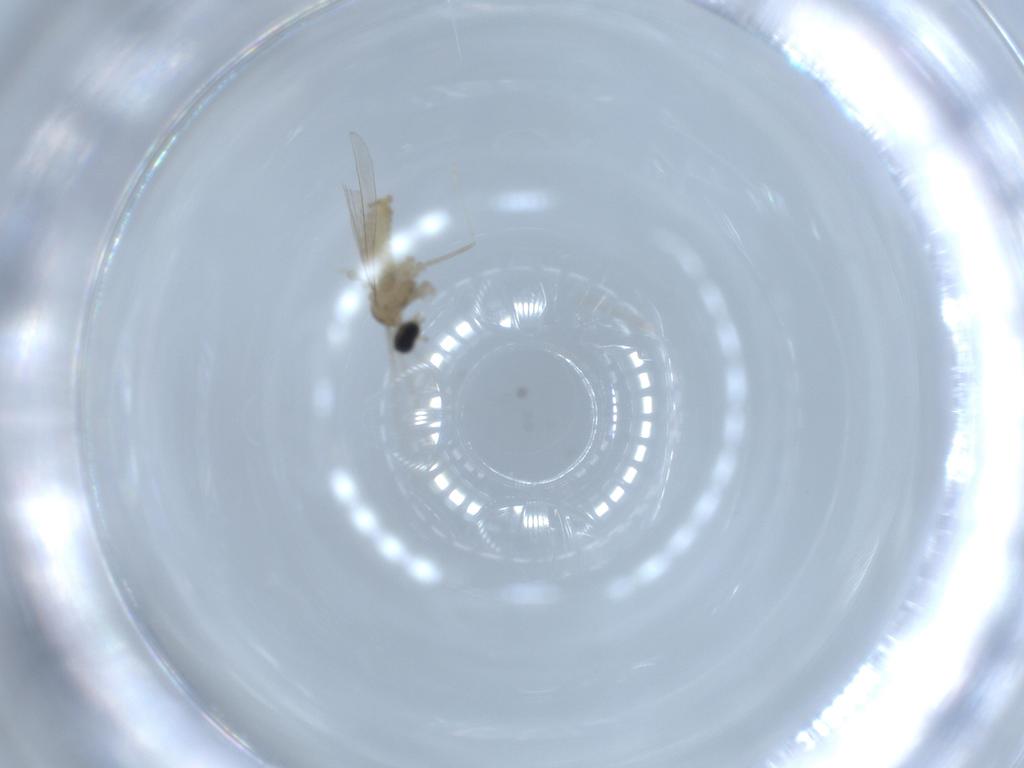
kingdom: Animalia
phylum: Arthropoda
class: Insecta
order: Diptera
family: Cecidomyiidae
